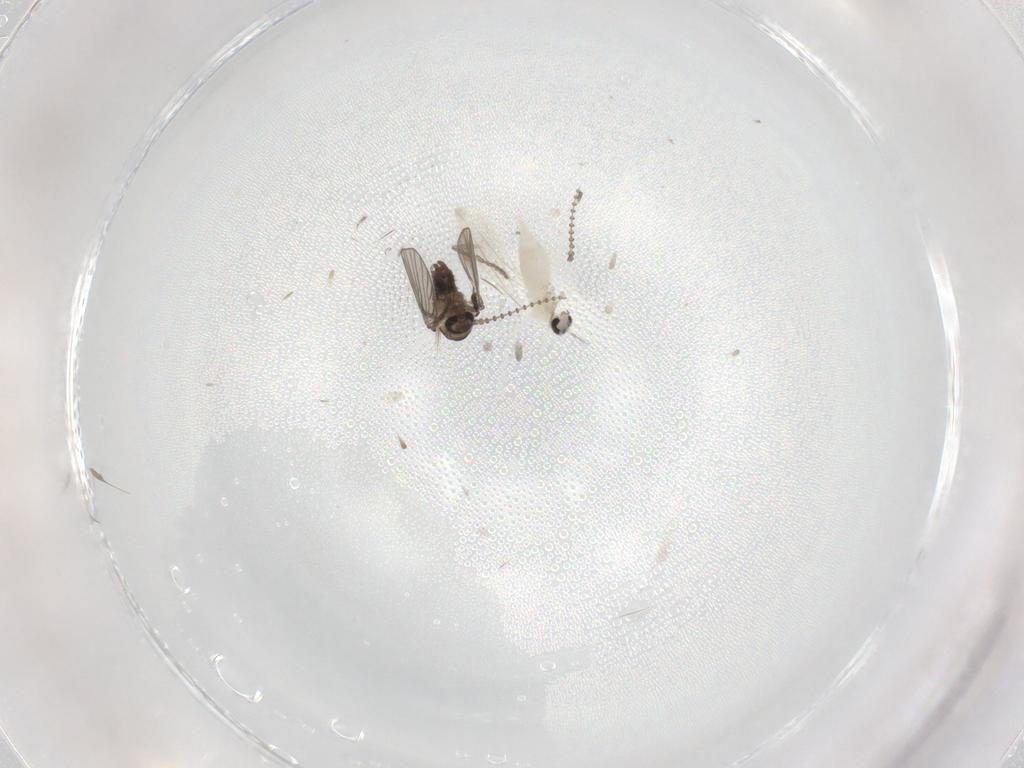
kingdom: Animalia
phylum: Arthropoda
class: Insecta
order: Diptera
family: Cecidomyiidae
